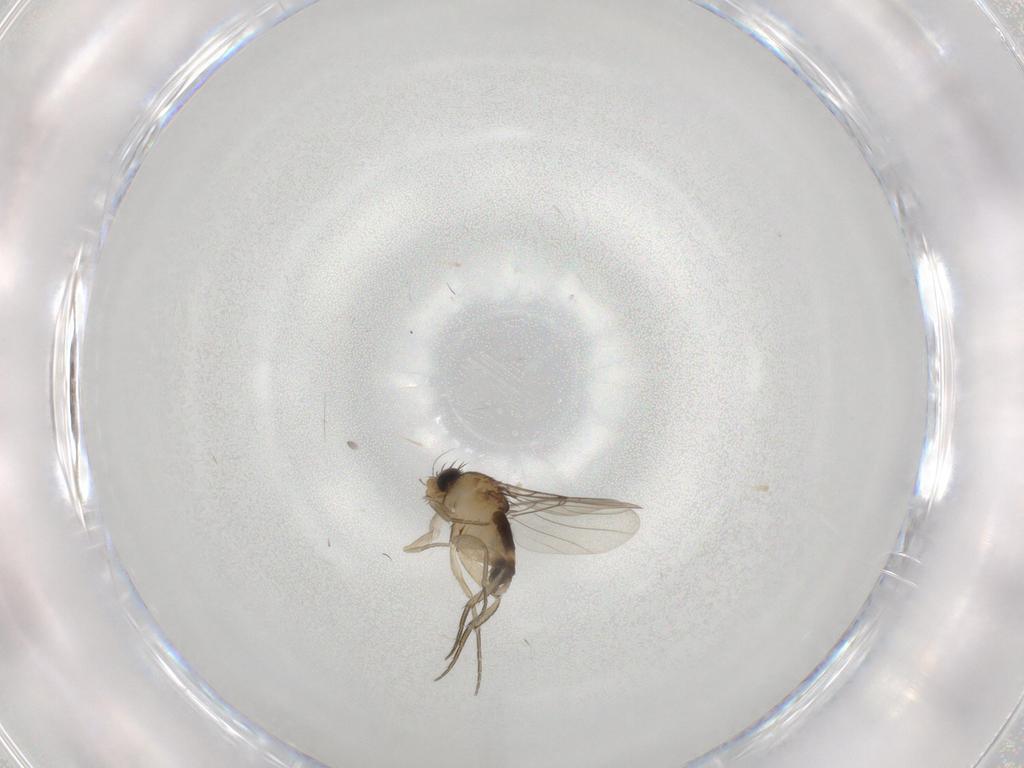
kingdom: Animalia
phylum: Arthropoda
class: Insecta
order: Diptera
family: Phoridae
